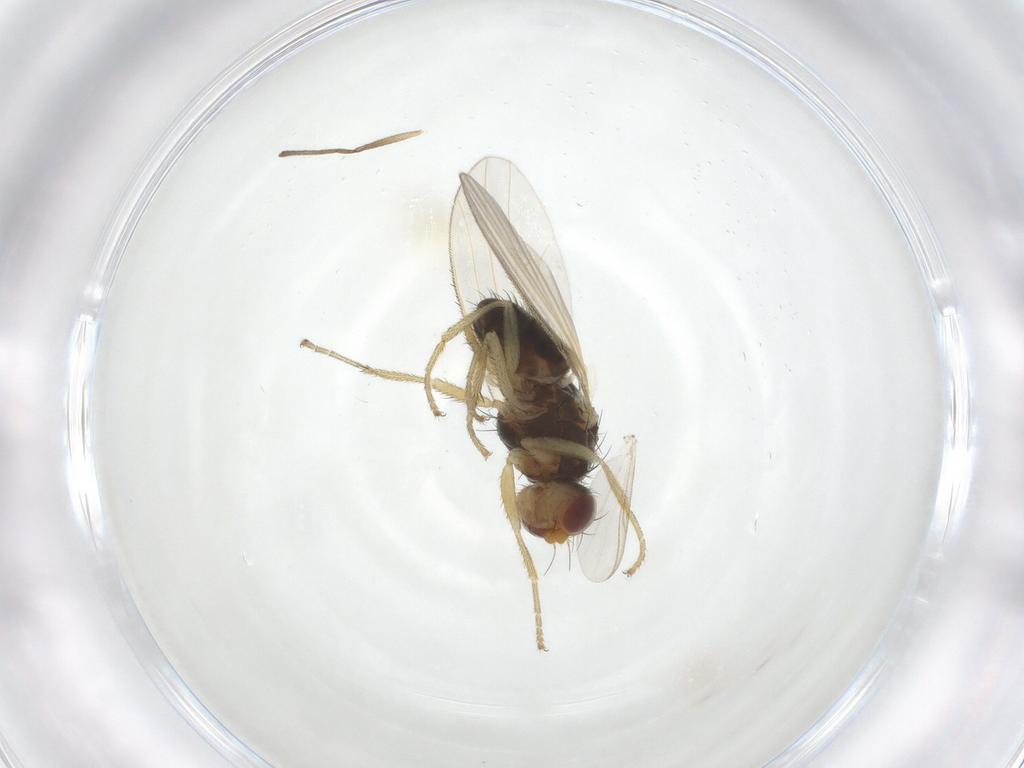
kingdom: Animalia
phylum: Arthropoda
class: Insecta
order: Diptera
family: Heleomyzidae
